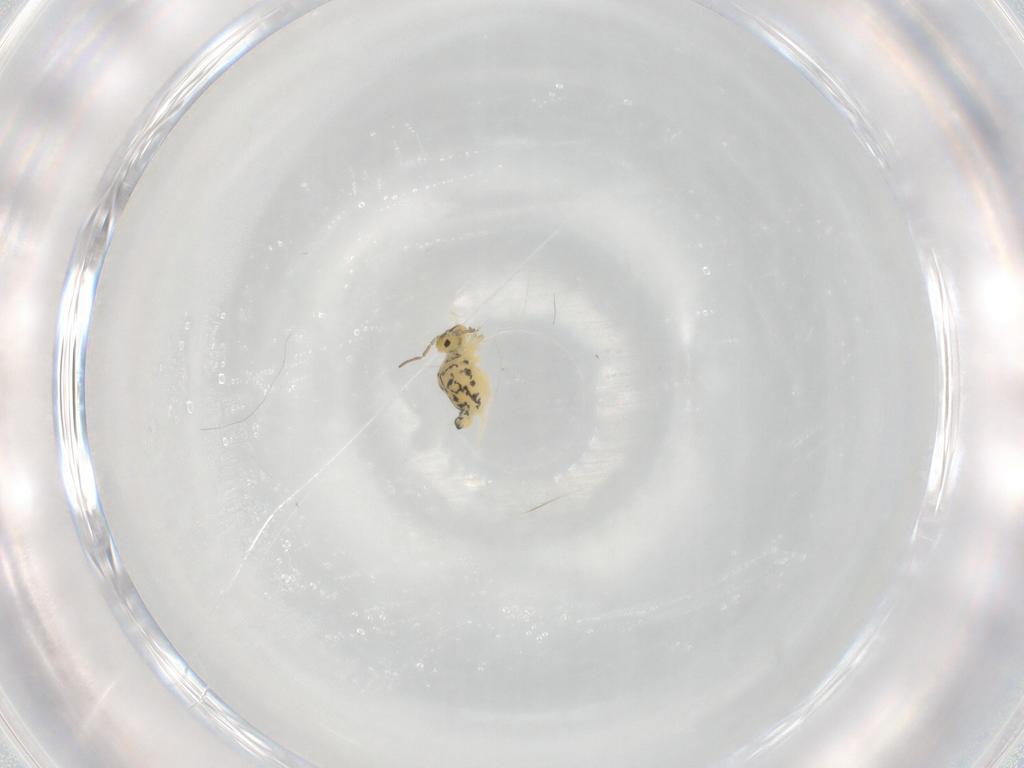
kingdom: Animalia
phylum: Arthropoda
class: Collembola
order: Symphypleona
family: Bourletiellidae
